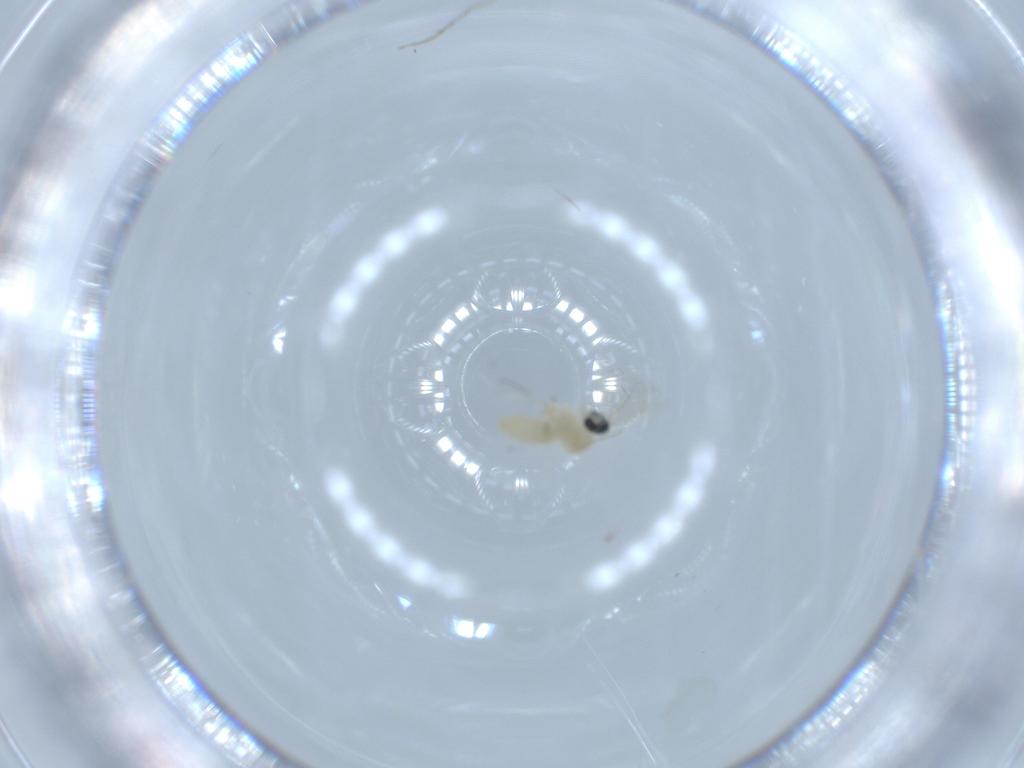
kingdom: Animalia
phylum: Arthropoda
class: Insecta
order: Diptera
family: Cecidomyiidae
